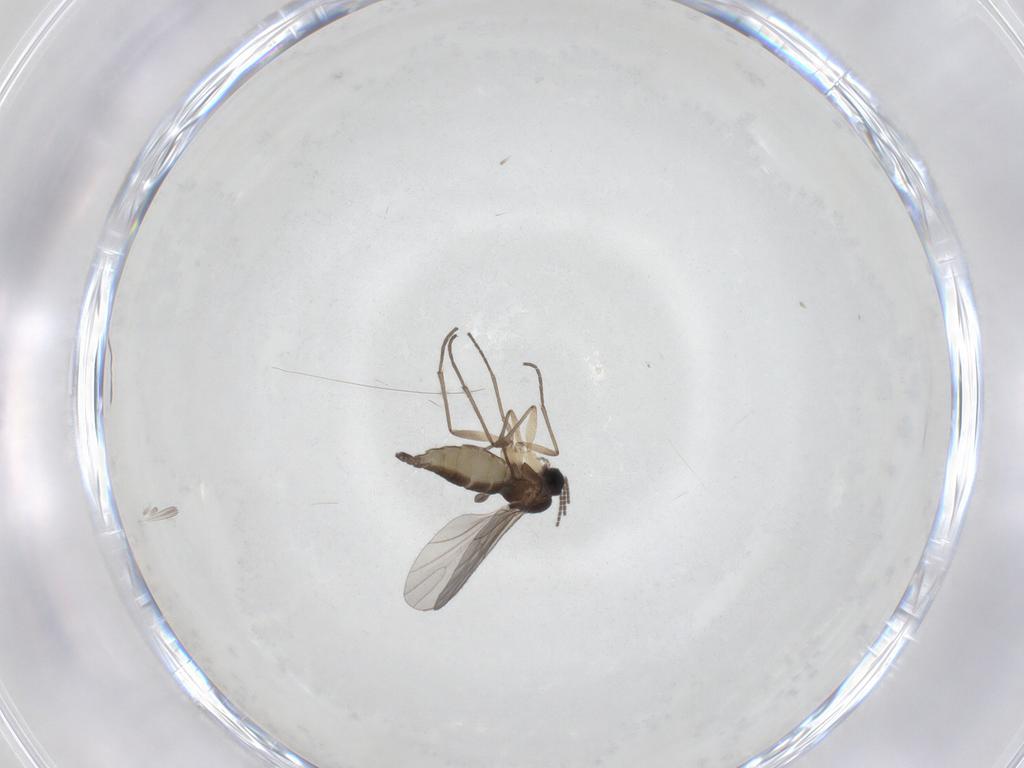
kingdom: Animalia
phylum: Arthropoda
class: Insecta
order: Diptera
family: Sciaridae
